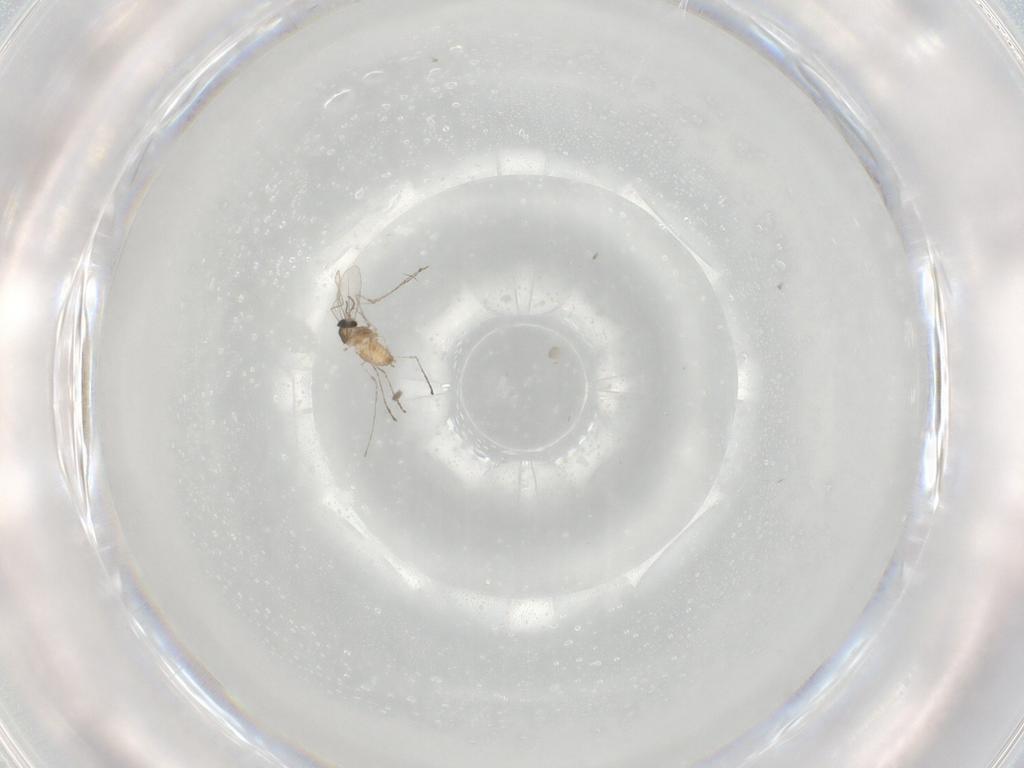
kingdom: Animalia
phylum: Arthropoda
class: Insecta
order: Diptera
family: Cecidomyiidae
